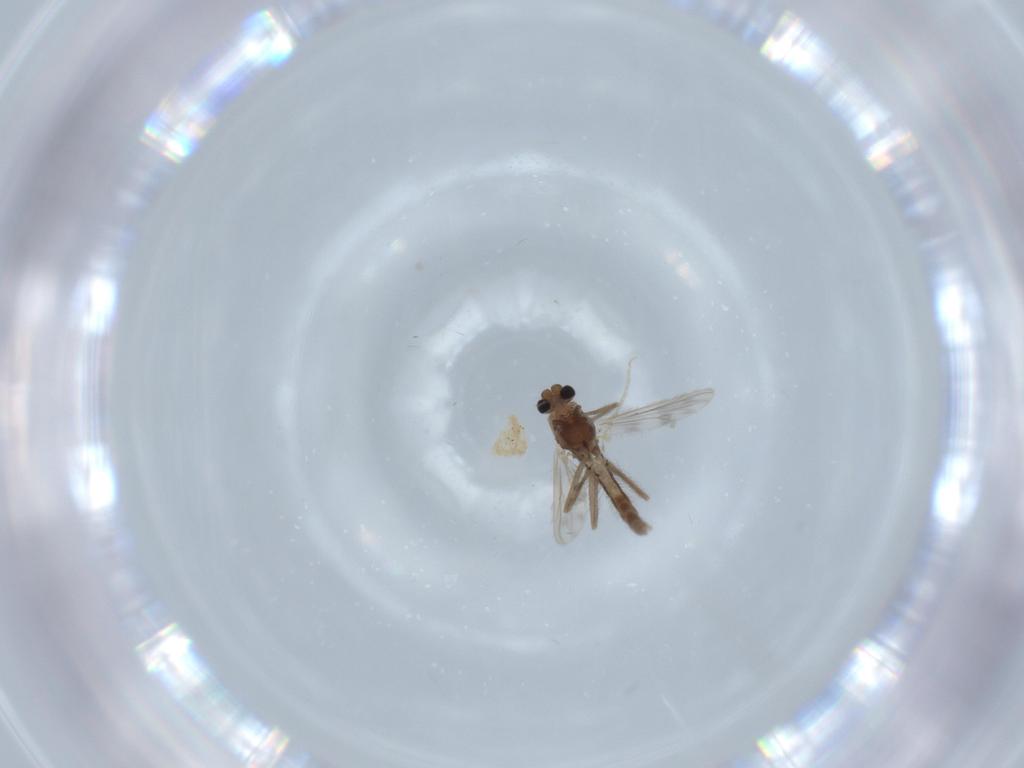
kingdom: Animalia
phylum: Arthropoda
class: Insecta
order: Diptera
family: Chironomidae
